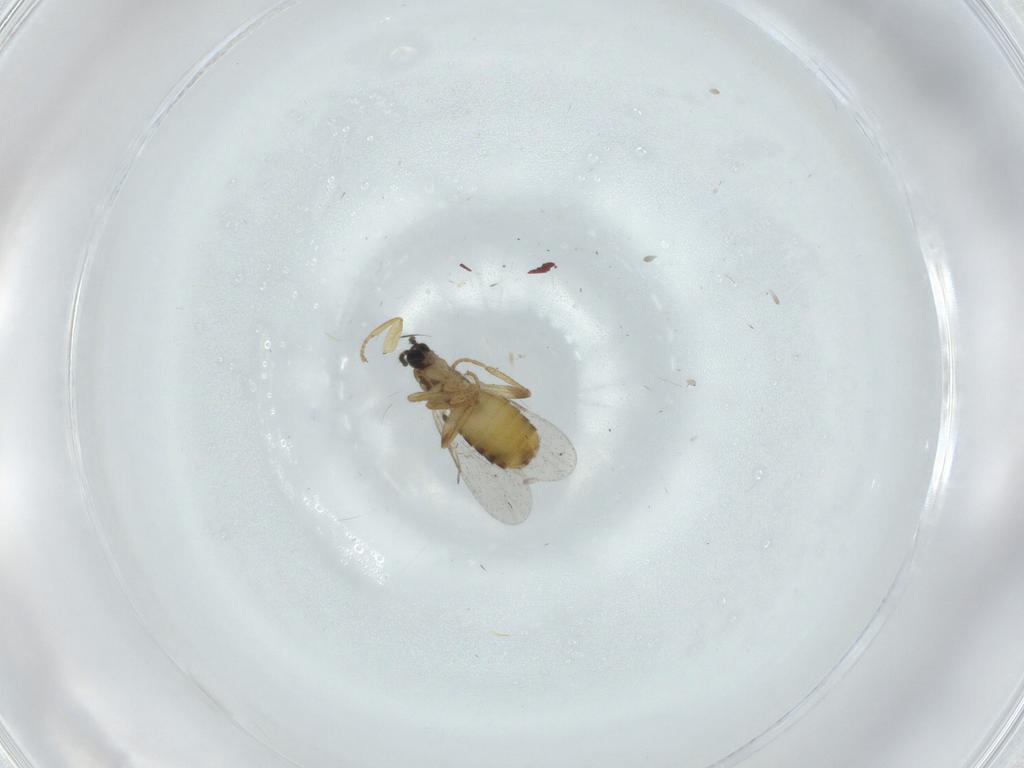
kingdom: Animalia
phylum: Arthropoda
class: Insecta
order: Diptera
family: Scatopsidae
